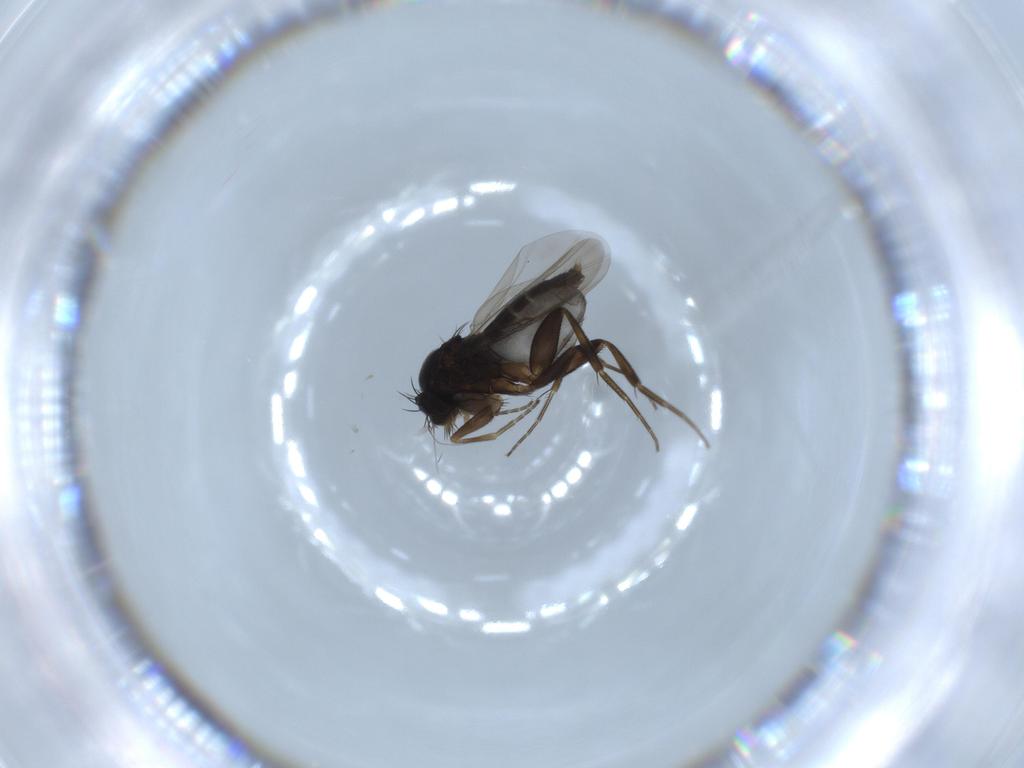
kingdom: Animalia
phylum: Arthropoda
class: Insecta
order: Diptera
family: Phoridae
